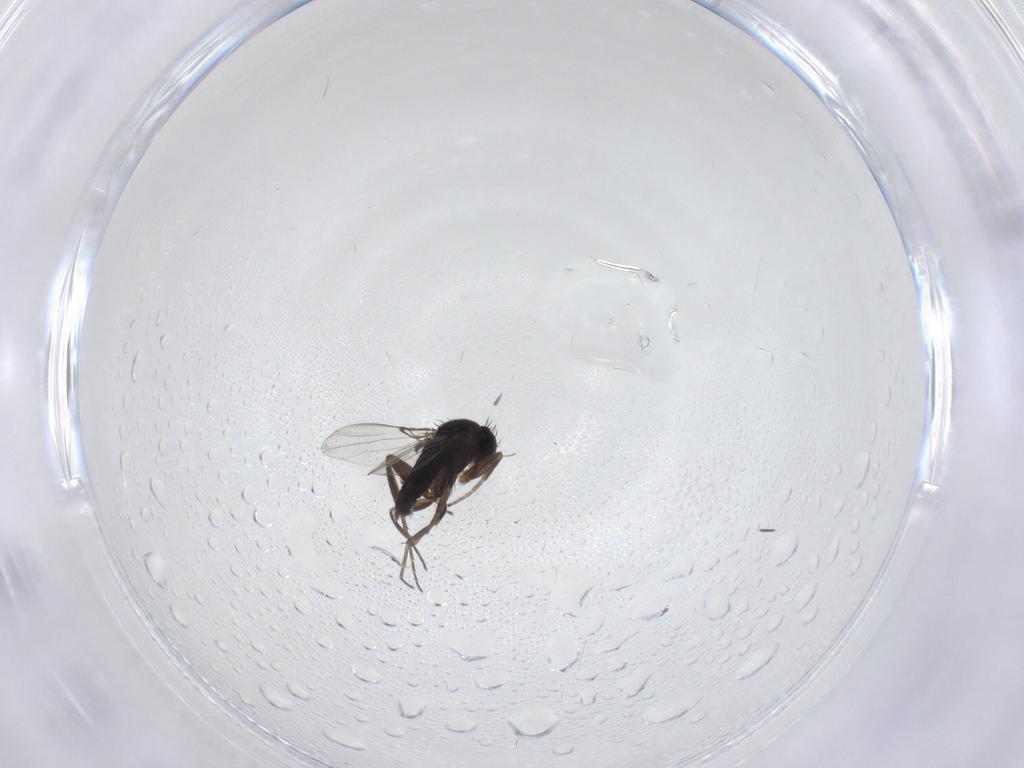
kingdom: Animalia
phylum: Arthropoda
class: Insecta
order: Diptera
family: Phoridae
